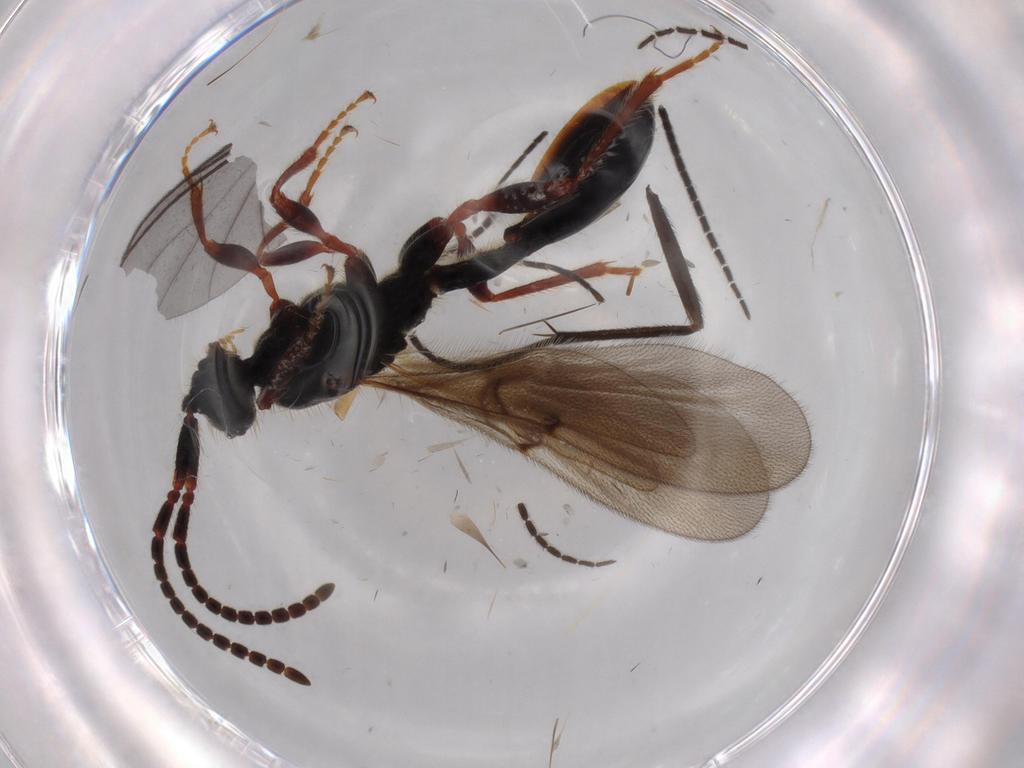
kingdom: Animalia
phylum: Arthropoda
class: Insecta
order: Hymenoptera
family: Diapriidae
